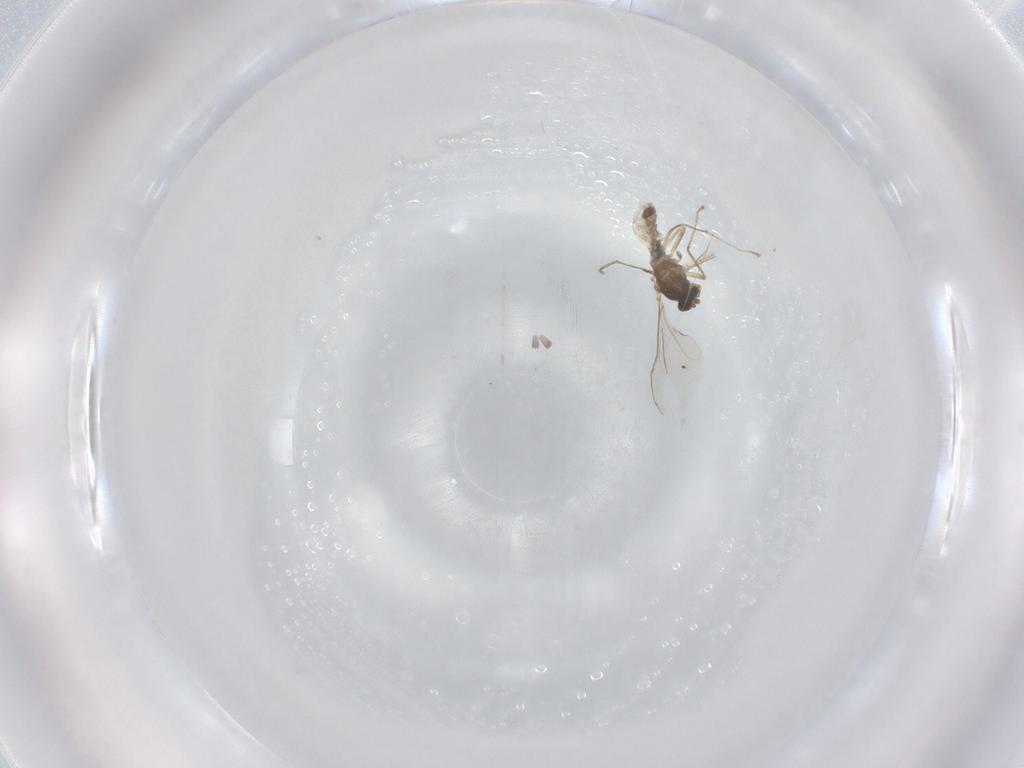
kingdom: Animalia
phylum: Arthropoda
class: Insecta
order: Diptera
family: Cecidomyiidae
